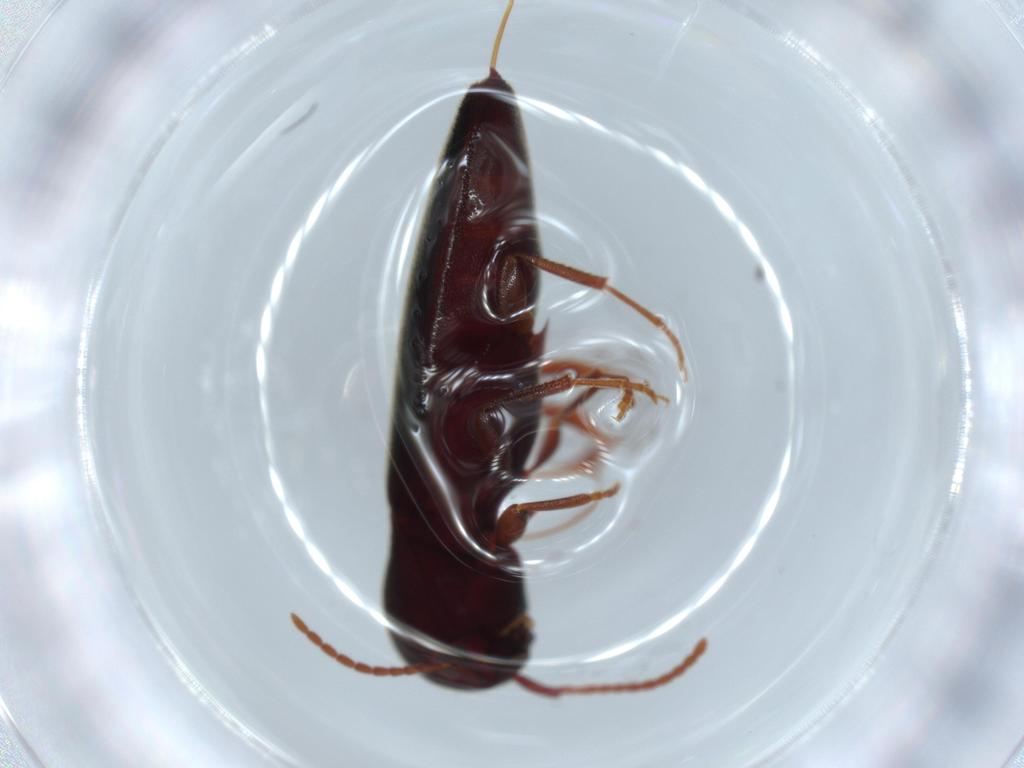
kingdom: Animalia
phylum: Arthropoda
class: Insecta
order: Coleoptera
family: Eucnemidae
